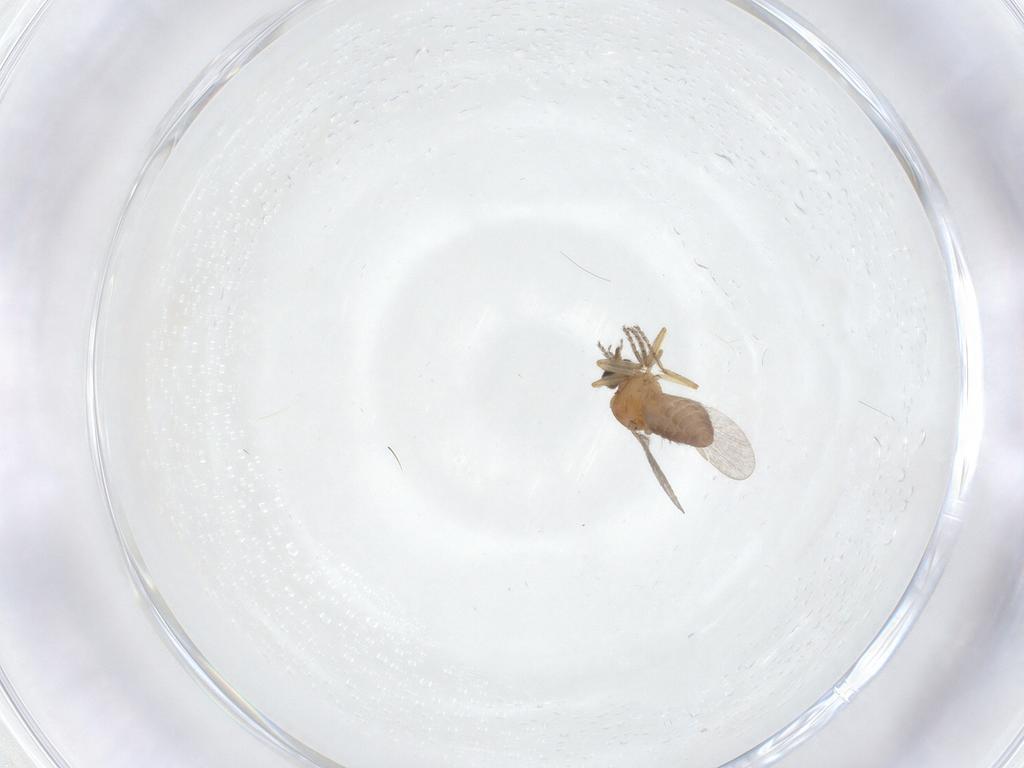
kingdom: Animalia
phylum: Arthropoda
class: Insecta
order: Diptera
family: Ceratopogonidae
